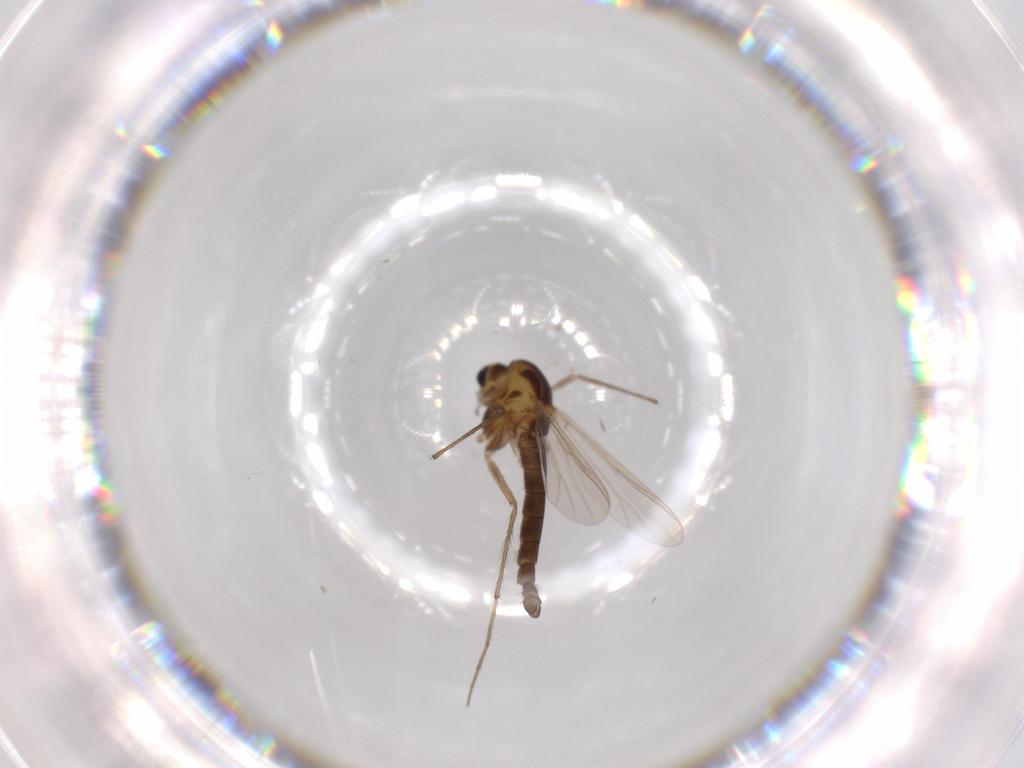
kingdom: Animalia
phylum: Arthropoda
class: Insecta
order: Diptera
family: Chironomidae
